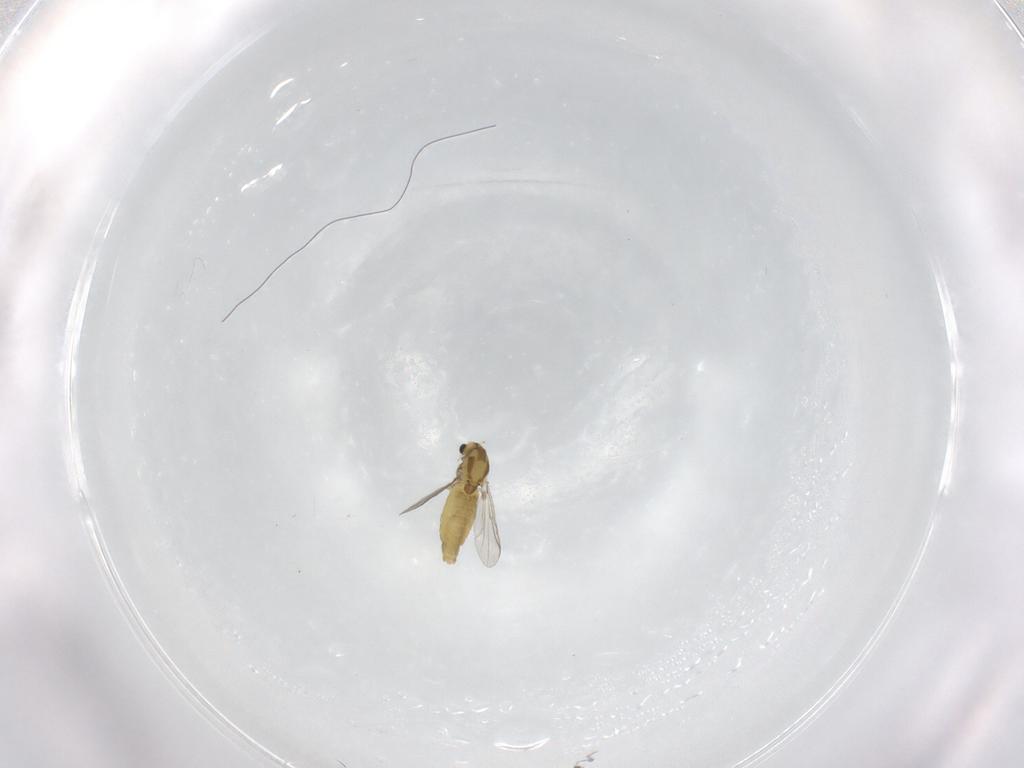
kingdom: Animalia
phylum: Arthropoda
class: Insecta
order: Diptera
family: Chironomidae
